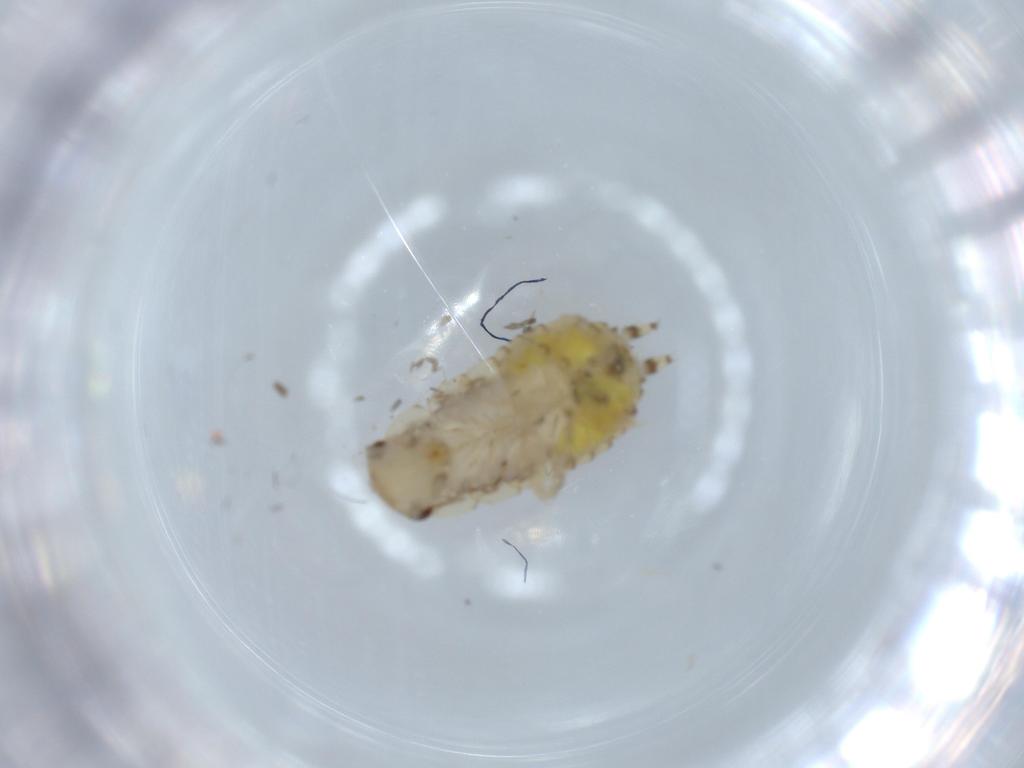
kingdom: Animalia
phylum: Arthropoda
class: Insecta
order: Blattodea
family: Ectobiidae
